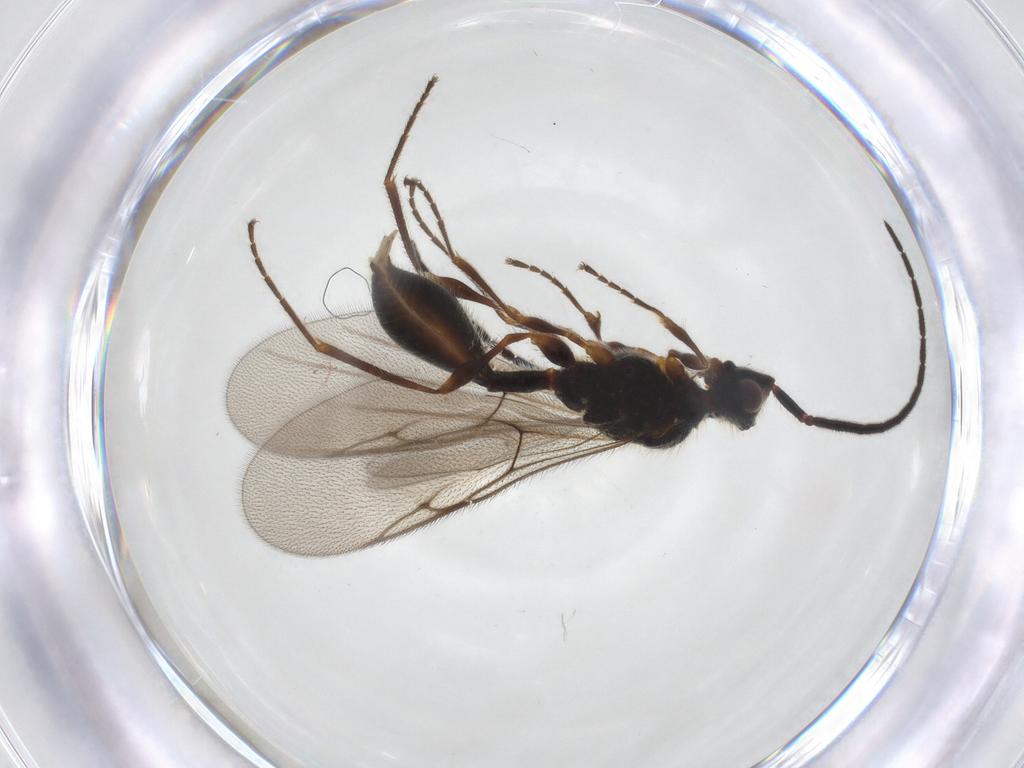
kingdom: Animalia
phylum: Arthropoda
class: Insecta
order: Hymenoptera
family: Diapriidae
